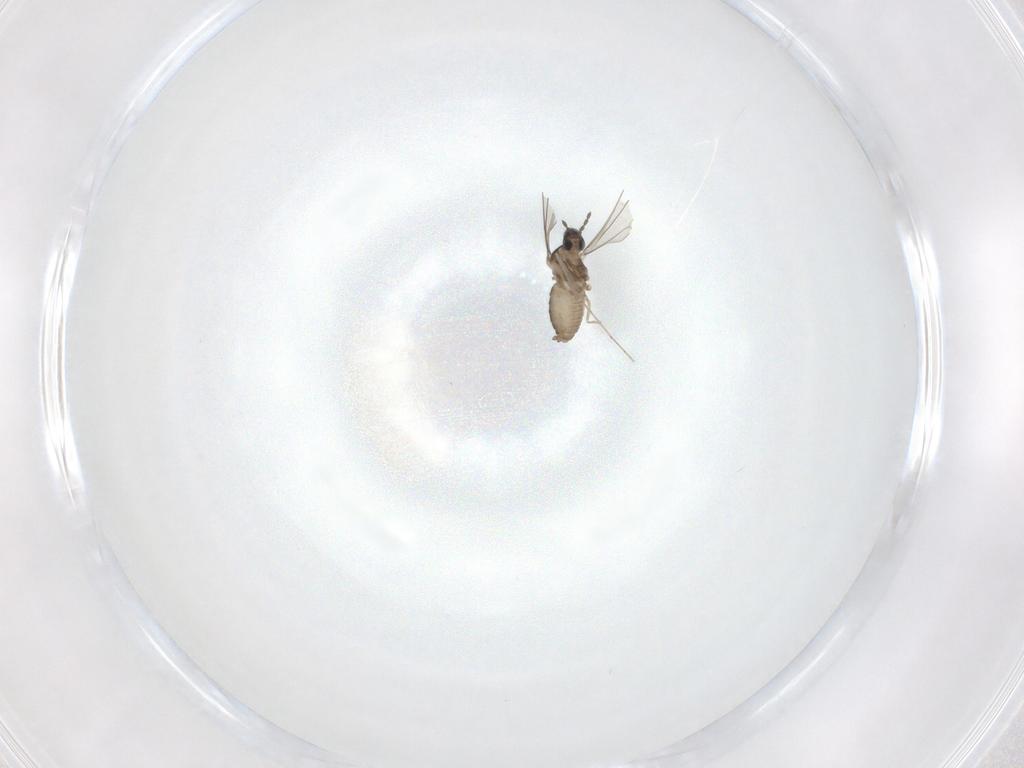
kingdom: Animalia
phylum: Arthropoda
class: Insecta
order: Diptera
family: Cecidomyiidae
